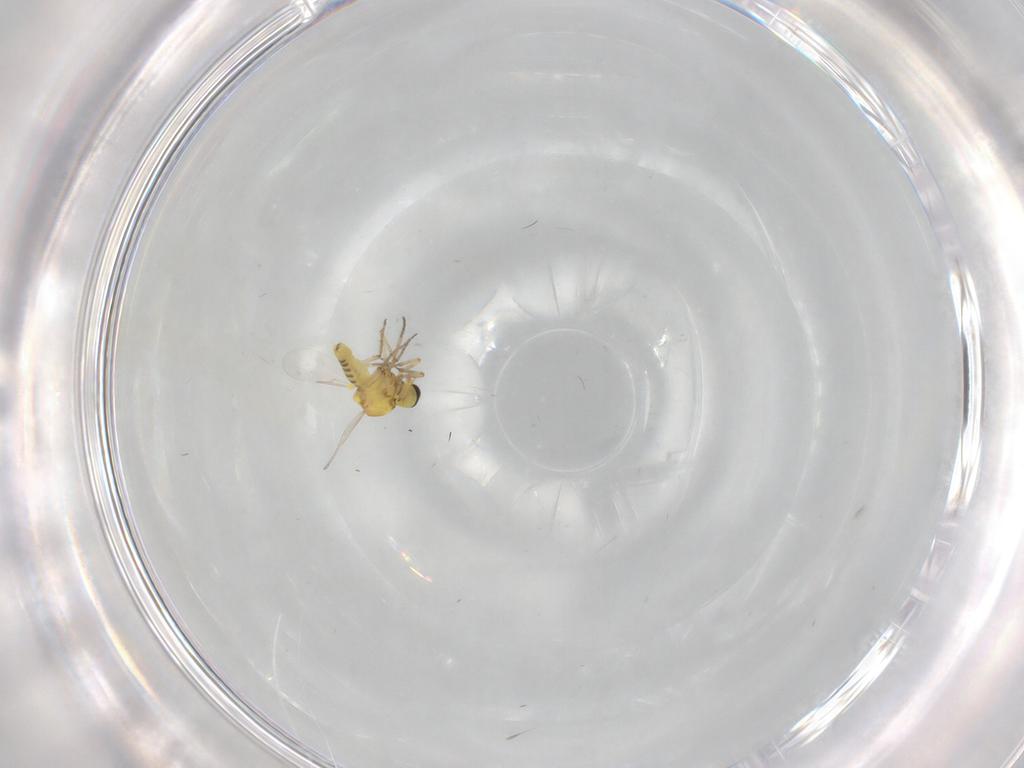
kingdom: Animalia
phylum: Arthropoda
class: Insecta
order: Diptera
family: Ceratopogonidae
